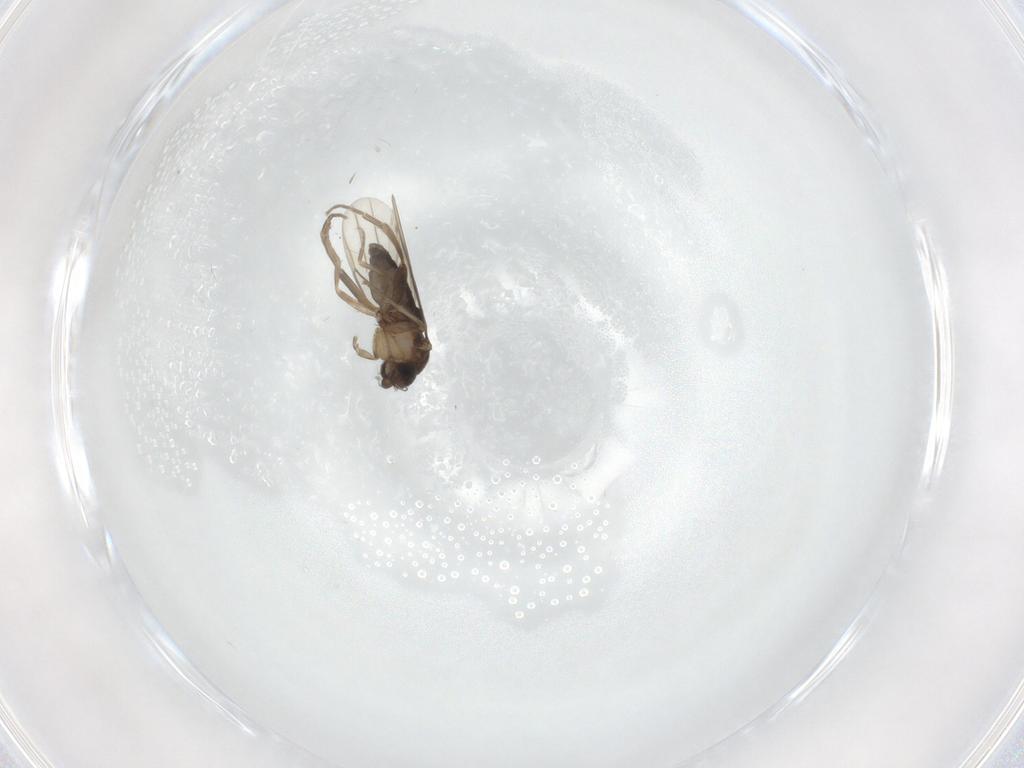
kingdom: Animalia
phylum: Arthropoda
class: Insecta
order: Diptera
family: Phoridae
